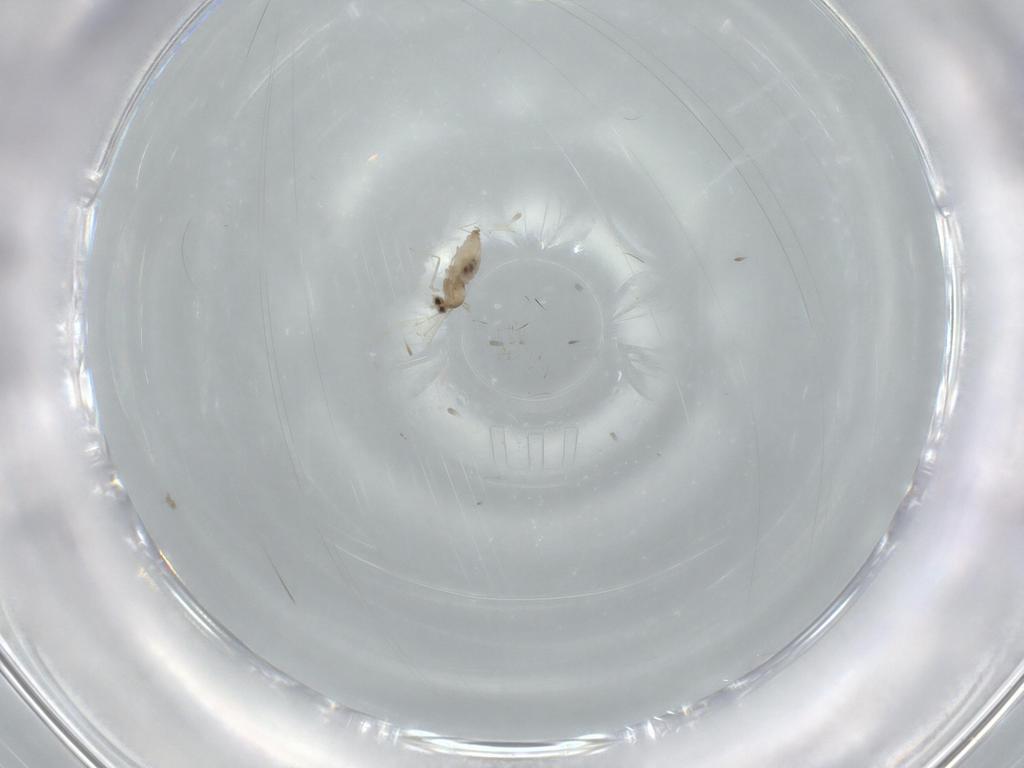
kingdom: Animalia
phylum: Arthropoda
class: Insecta
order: Diptera
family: Cecidomyiidae
